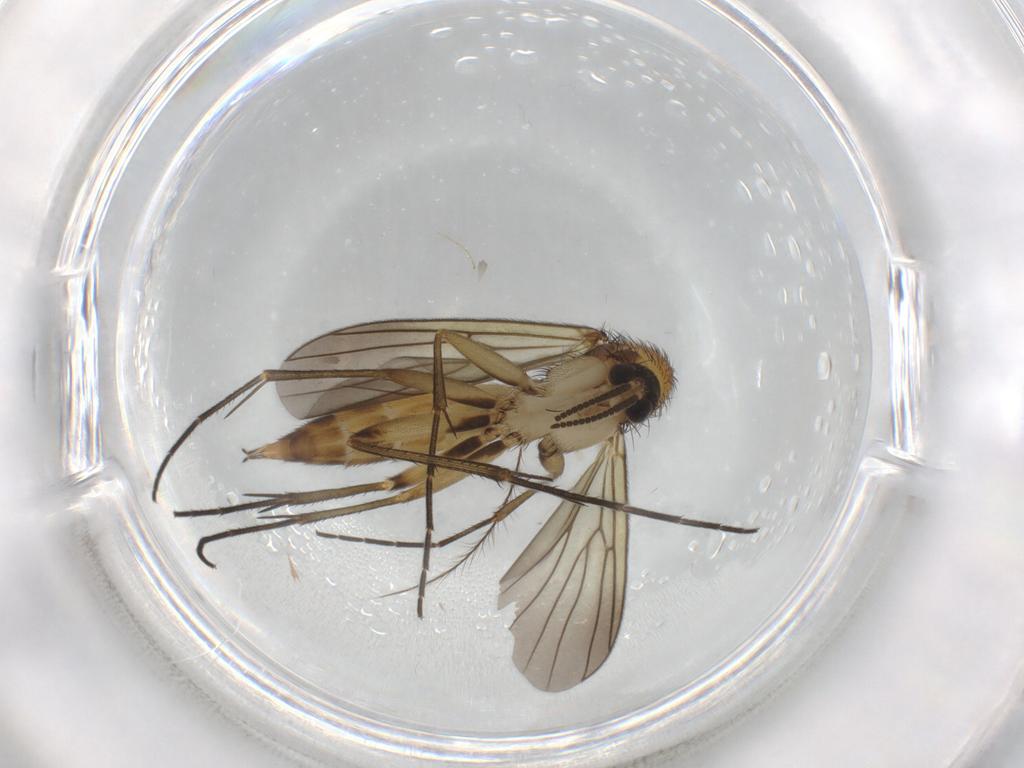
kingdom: Animalia
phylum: Arthropoda
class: Insecta
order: Diptera
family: Mycetophilidae
